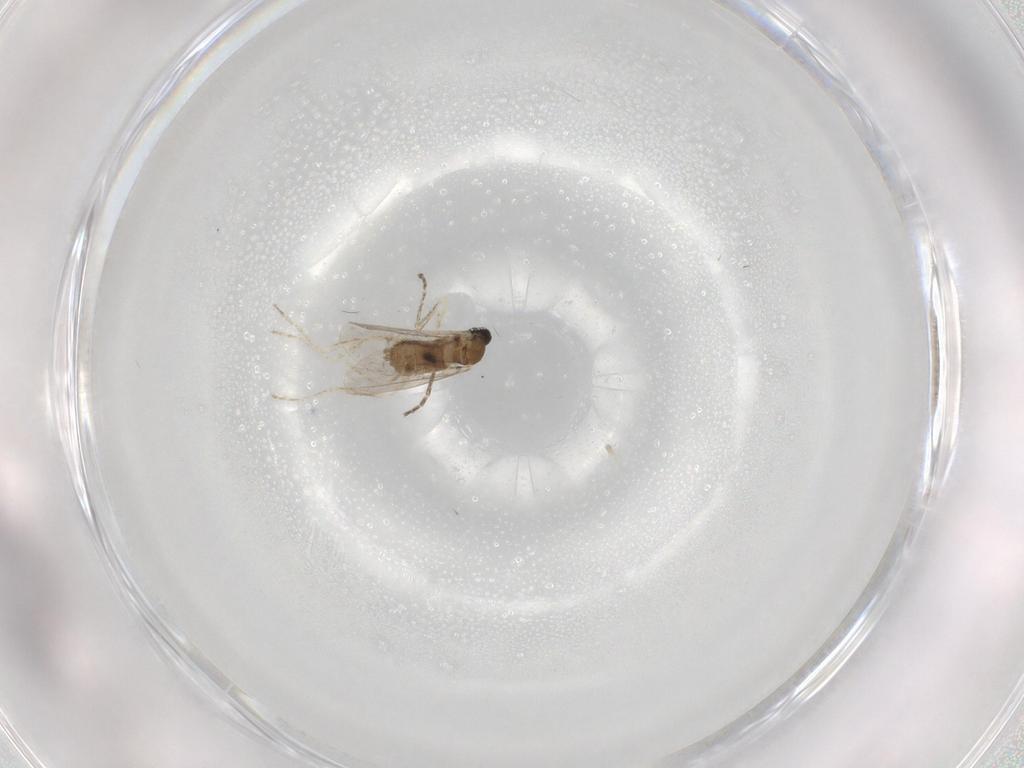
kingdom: Animalia
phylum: Arthropoda
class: Insecta
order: Diptera
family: Cecidomyiidae
